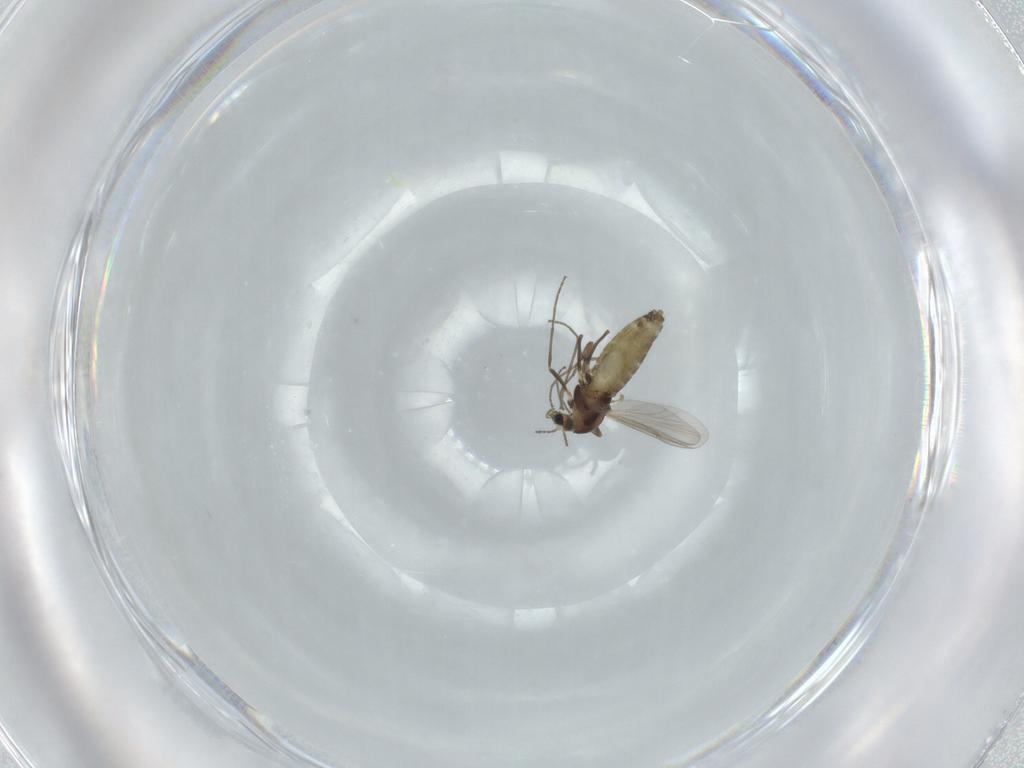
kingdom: Animalia
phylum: Arthropoda
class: Insecta
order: Diptera
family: Chironomidae
